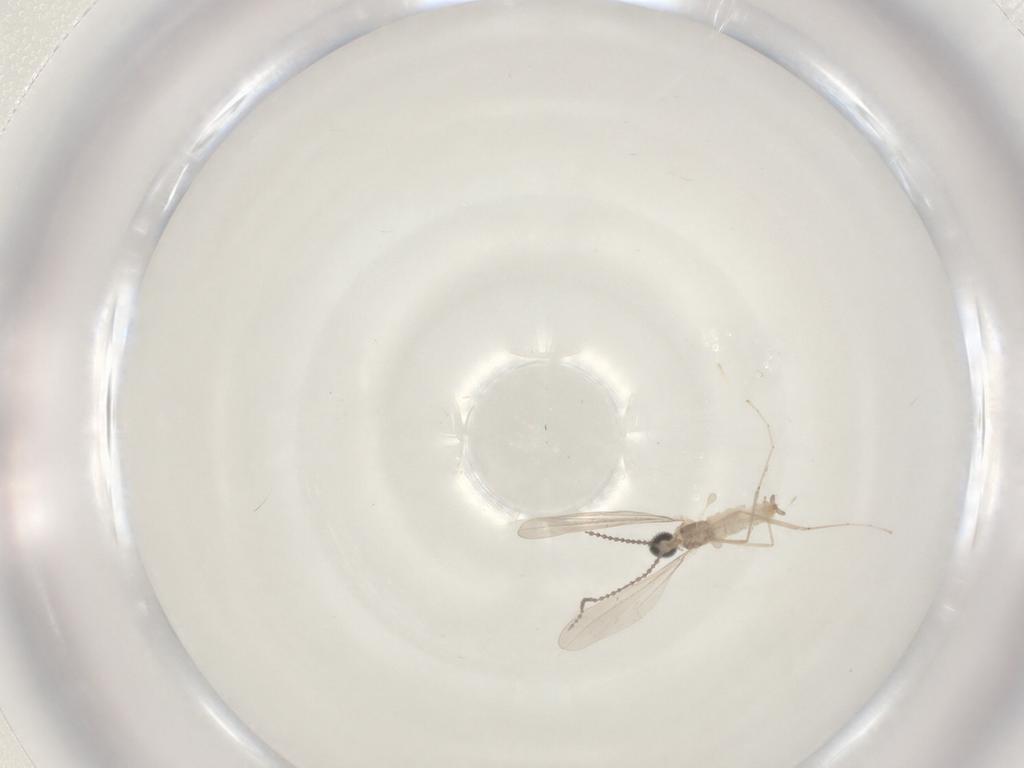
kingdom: Animalia
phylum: Arthropoda
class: Insecta
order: Diptera
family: Cecidomyiidae
